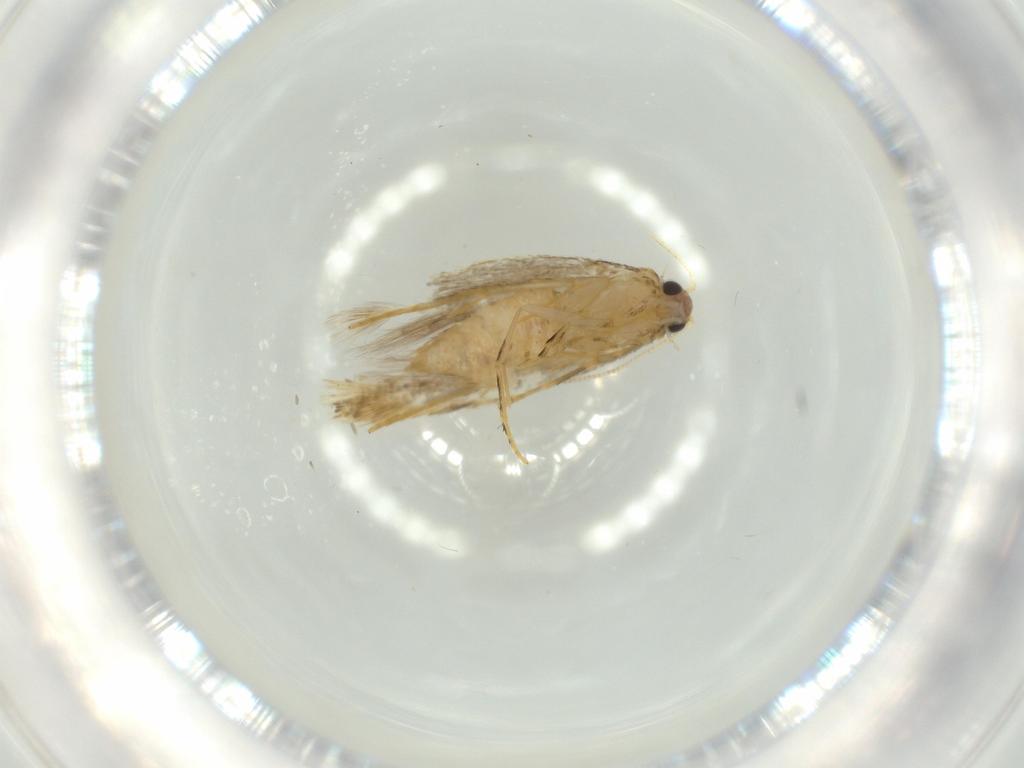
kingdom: Animalia
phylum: Arthropoda
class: Insecta
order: Lepidoptera
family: Tineidae
